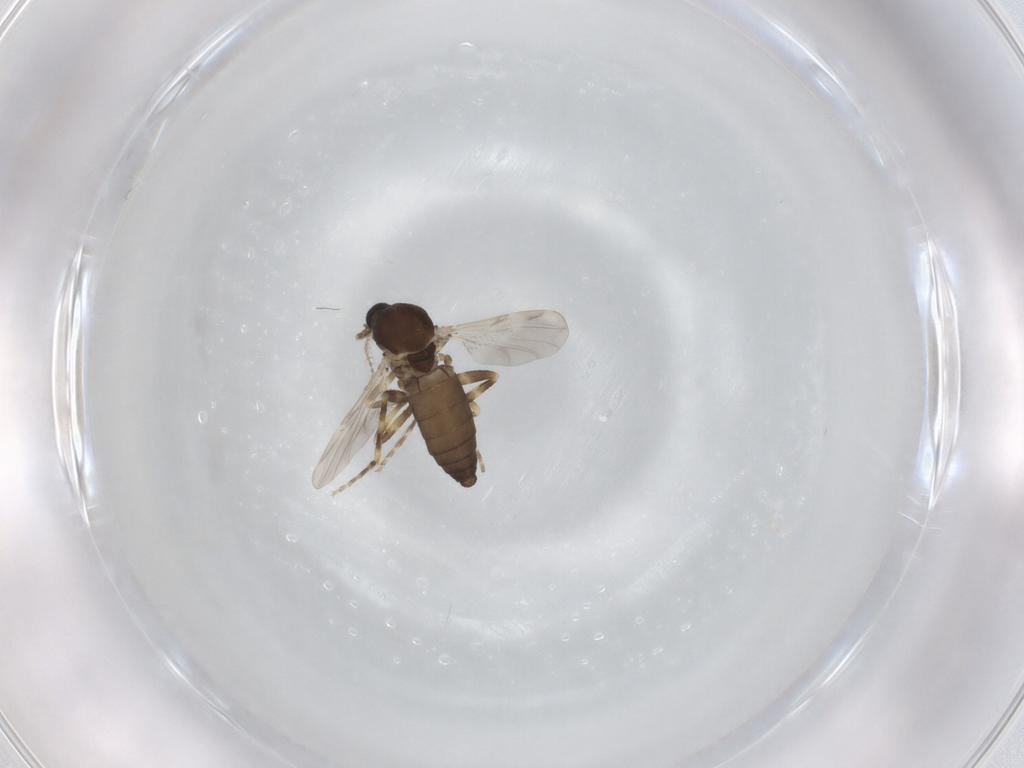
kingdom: Animalia
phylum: Arthropoda
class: Insecta
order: Diptera
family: Ceratopogonidae
